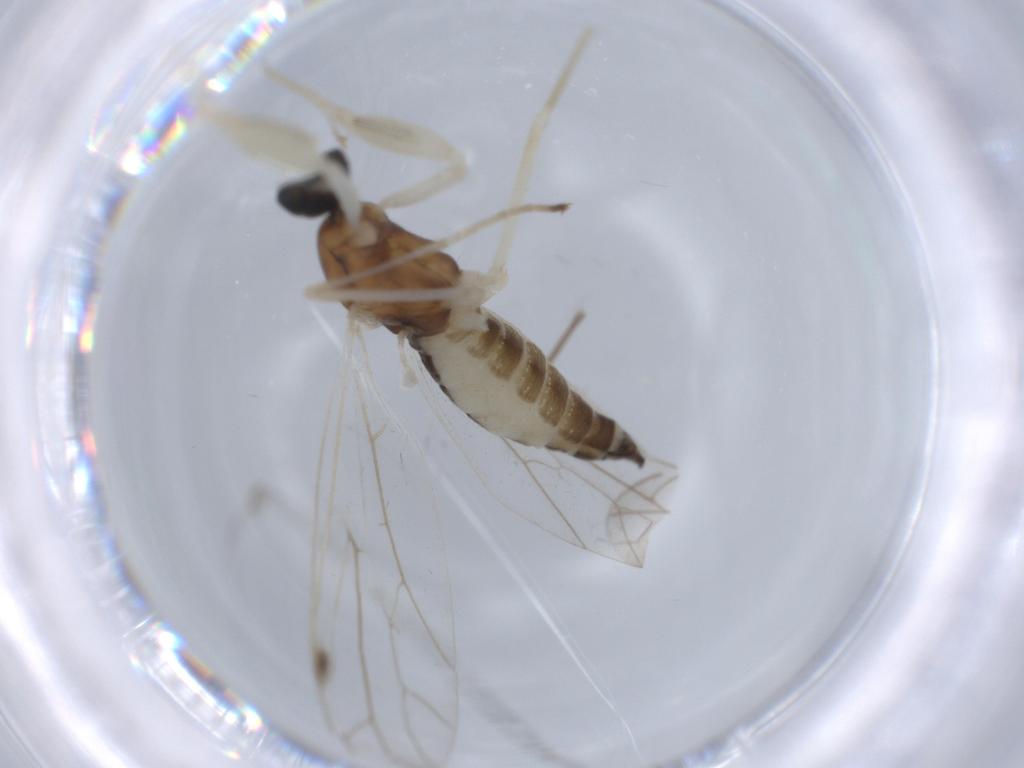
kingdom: Animalia
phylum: Arthropoda
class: Insecta
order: Diptera
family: Empididae
